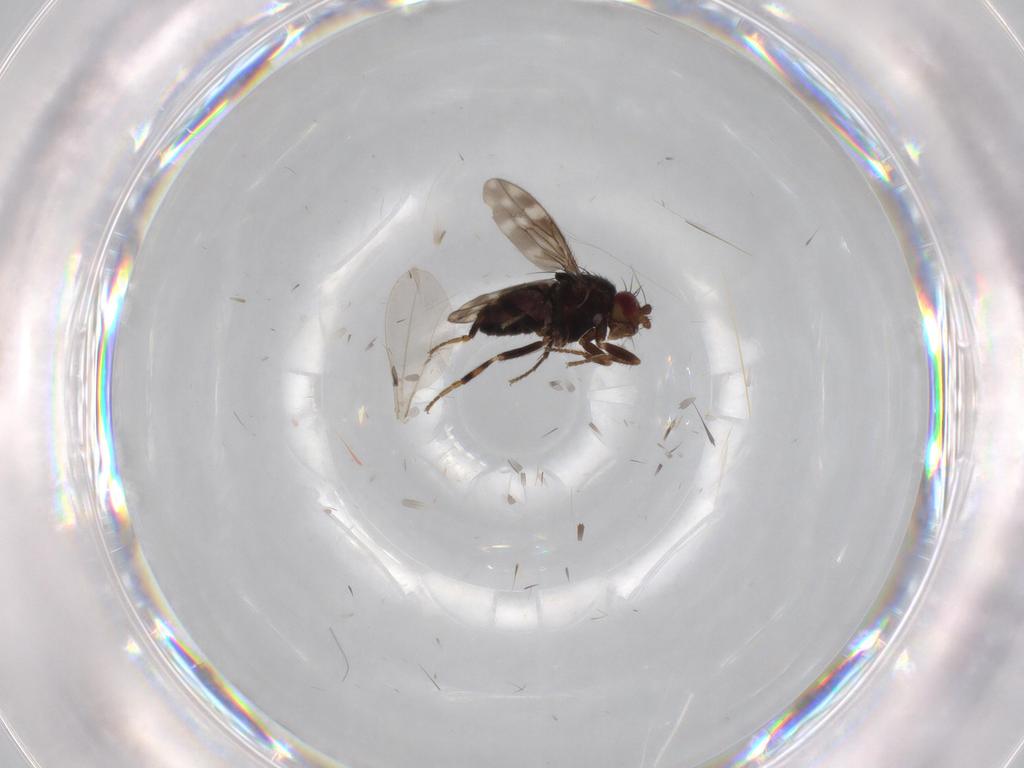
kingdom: Animalia
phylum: Arthropoda
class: Insecta
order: Diptera
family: Sphaeroceridae
